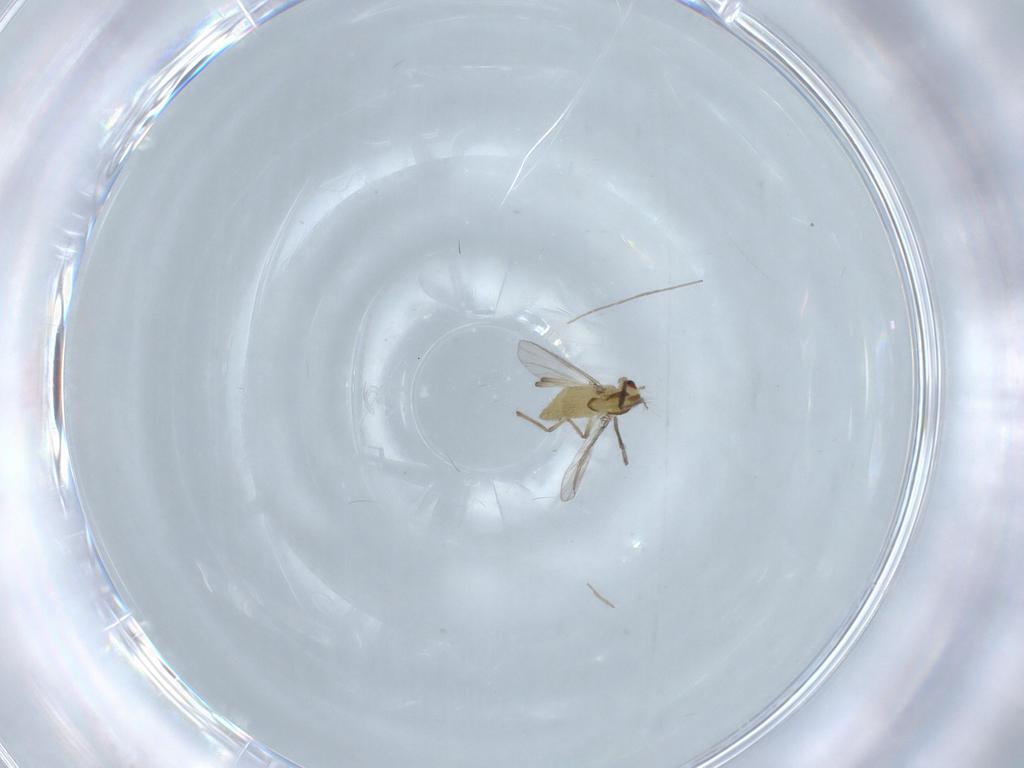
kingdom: Animalia
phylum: Arthropoda
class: Insecta
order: Diptera
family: Chironomidae
